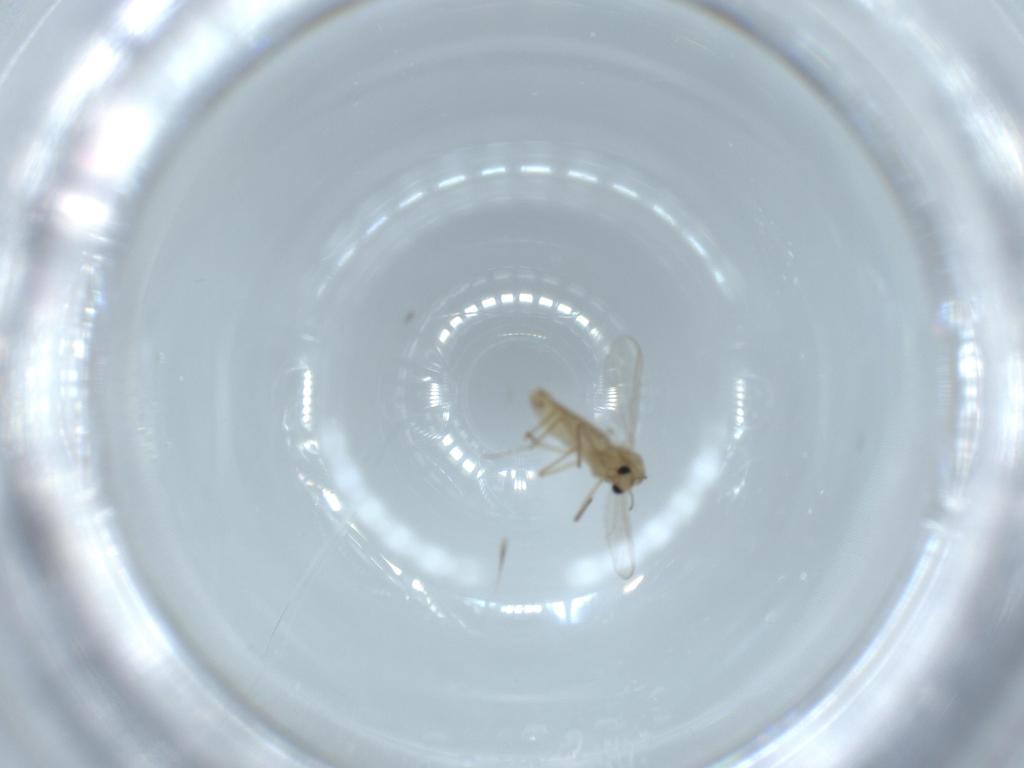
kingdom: Animalia
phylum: Arthropoda
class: Insecta
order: Diptera
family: Chironomidae
